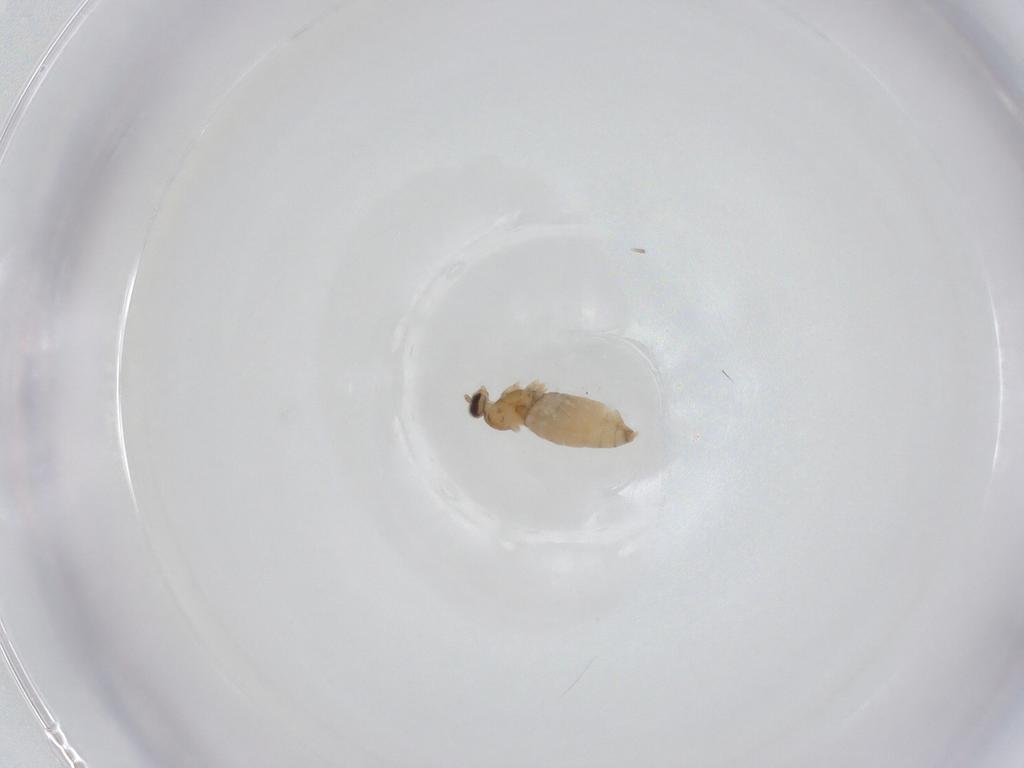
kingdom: Animalia
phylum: Arthropoda
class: Insecta
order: Diptera
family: Cecidomyiidae
